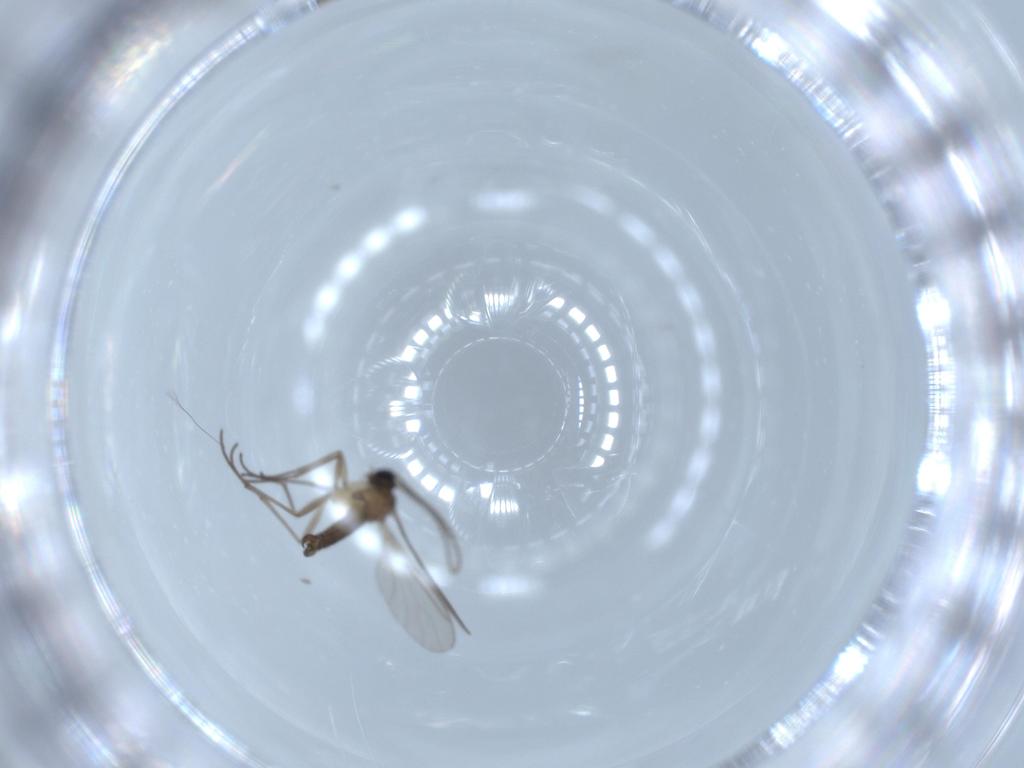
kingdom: Animalia
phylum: Arthropoda
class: Insecta
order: Diptera
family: Sciaridae
